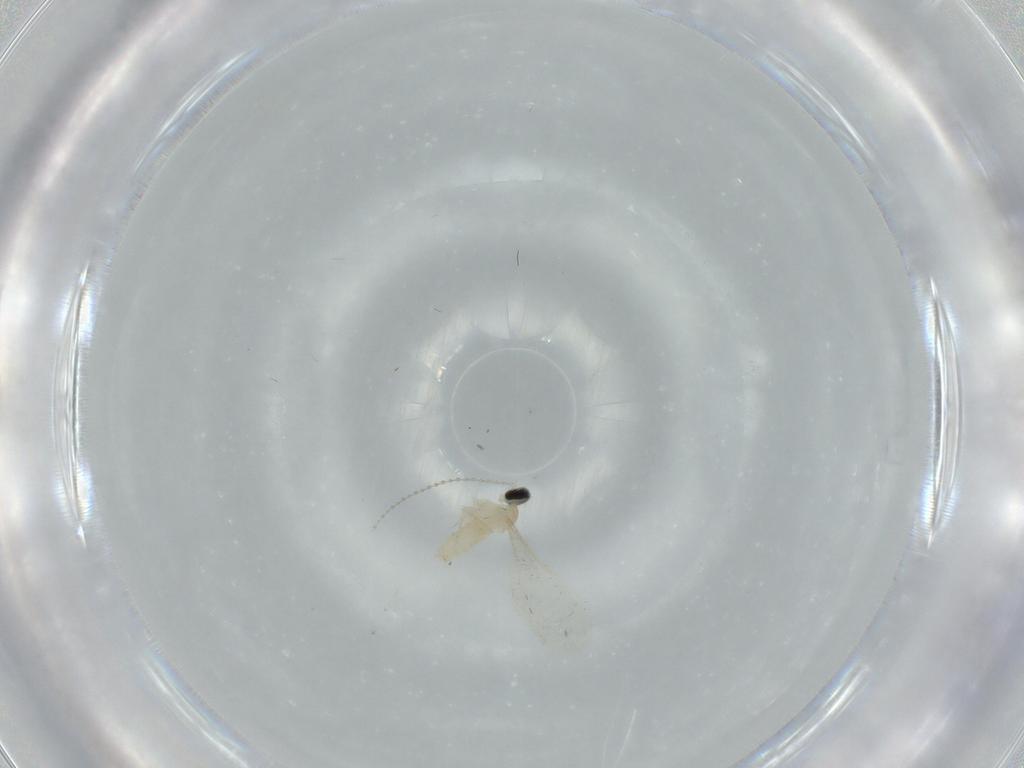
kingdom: Animalia
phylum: Arthropoda
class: Insecta
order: Diptera
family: Cecidomyiidae
